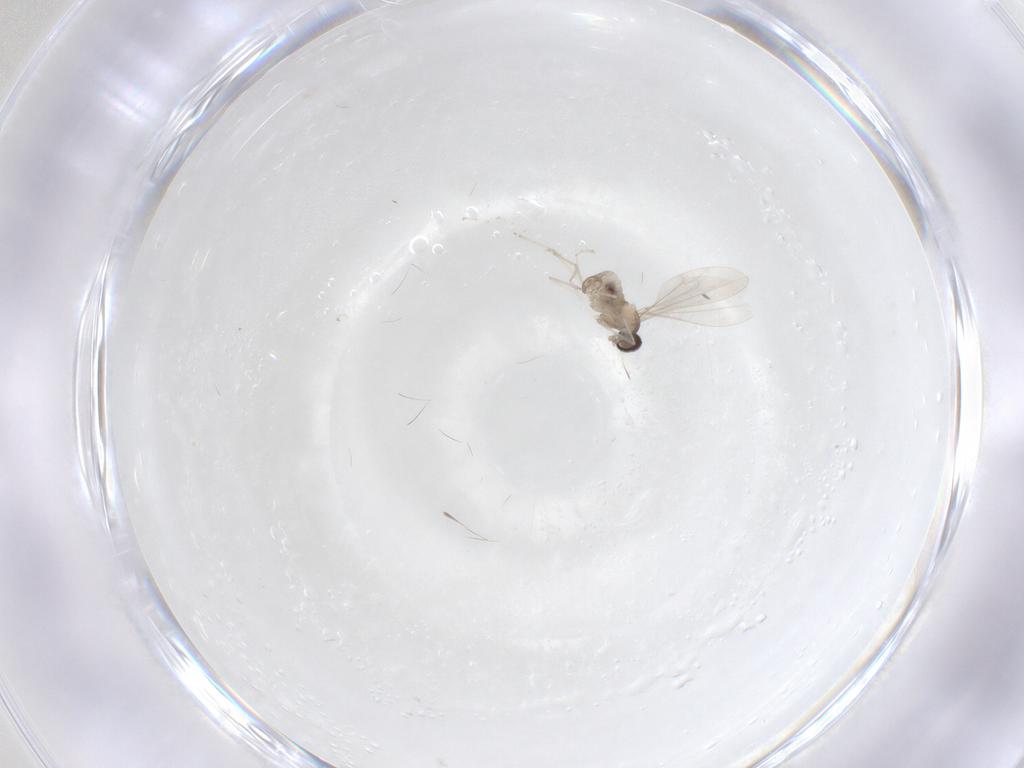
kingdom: Animalia
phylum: Arthropoda
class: Insecta
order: Diptera
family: Cecidomyiidae
